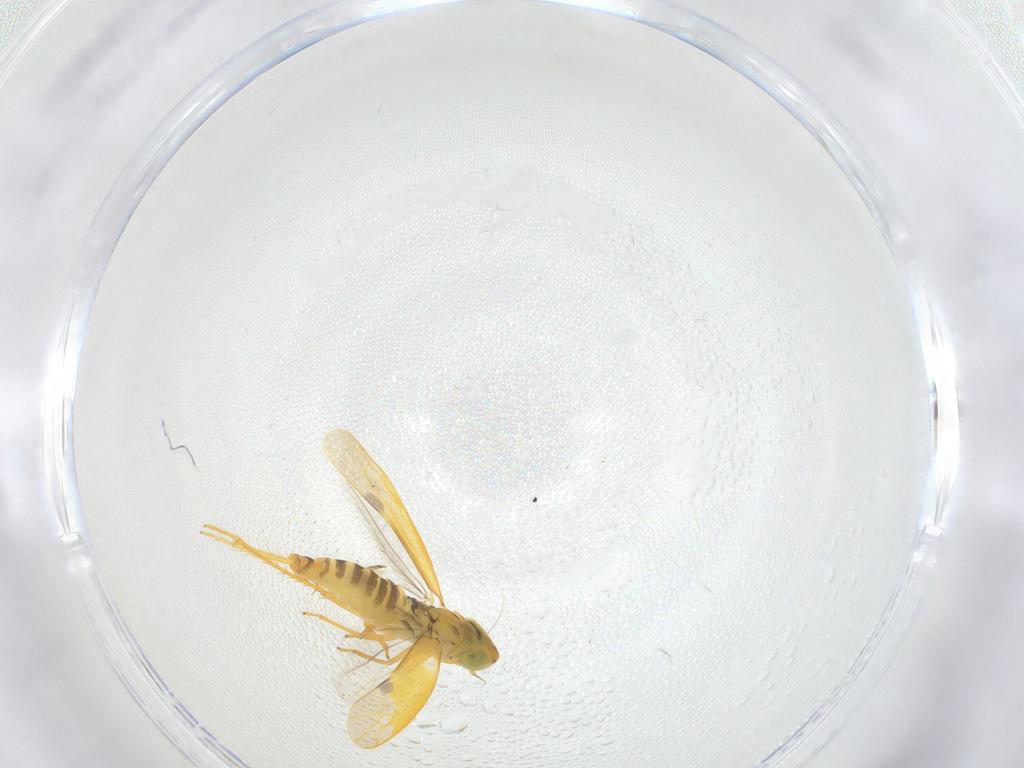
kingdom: Animalia
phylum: Arthropoda
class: Insecta
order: Hemiptera
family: Cicadellidae
